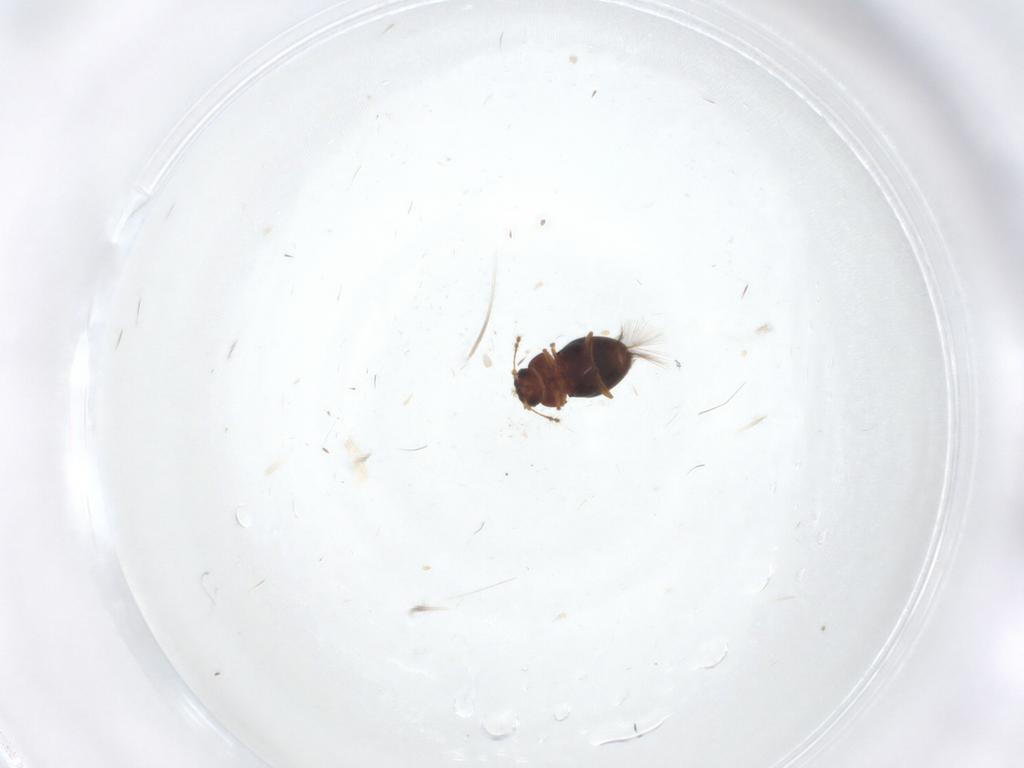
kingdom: Animalia
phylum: Arthropoda
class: Insecta
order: Coleoptera
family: Ptiliidae
